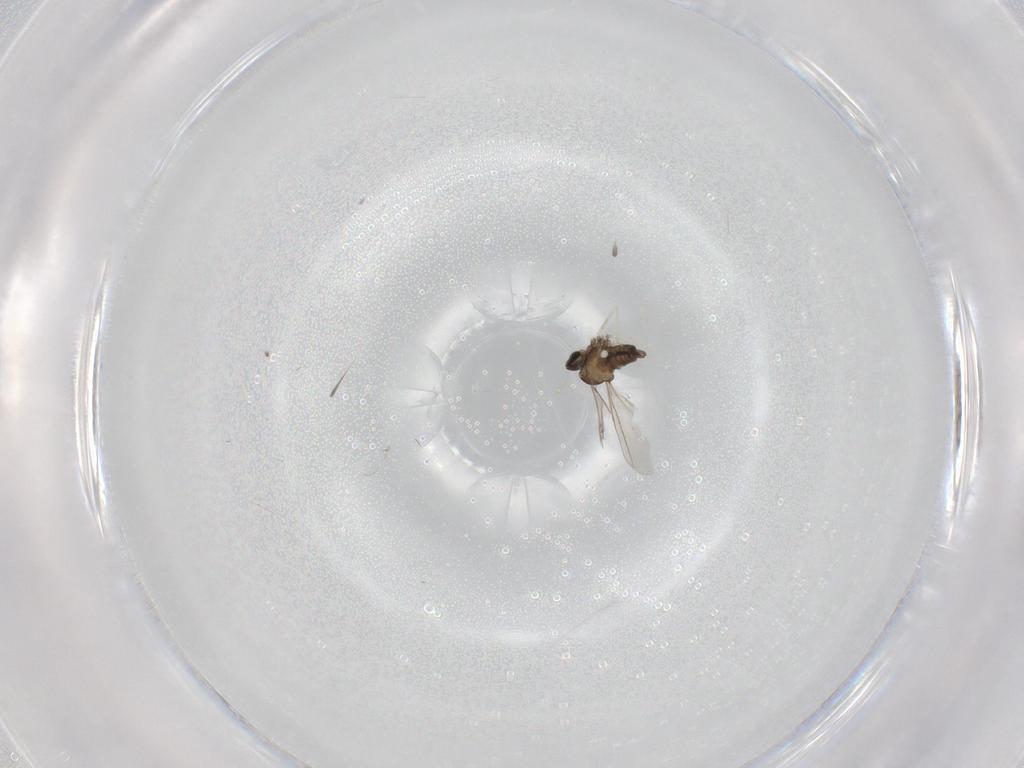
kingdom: Animalia
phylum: Arthropoda
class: Insecta
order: Diptera
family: Cecidomyiidae
